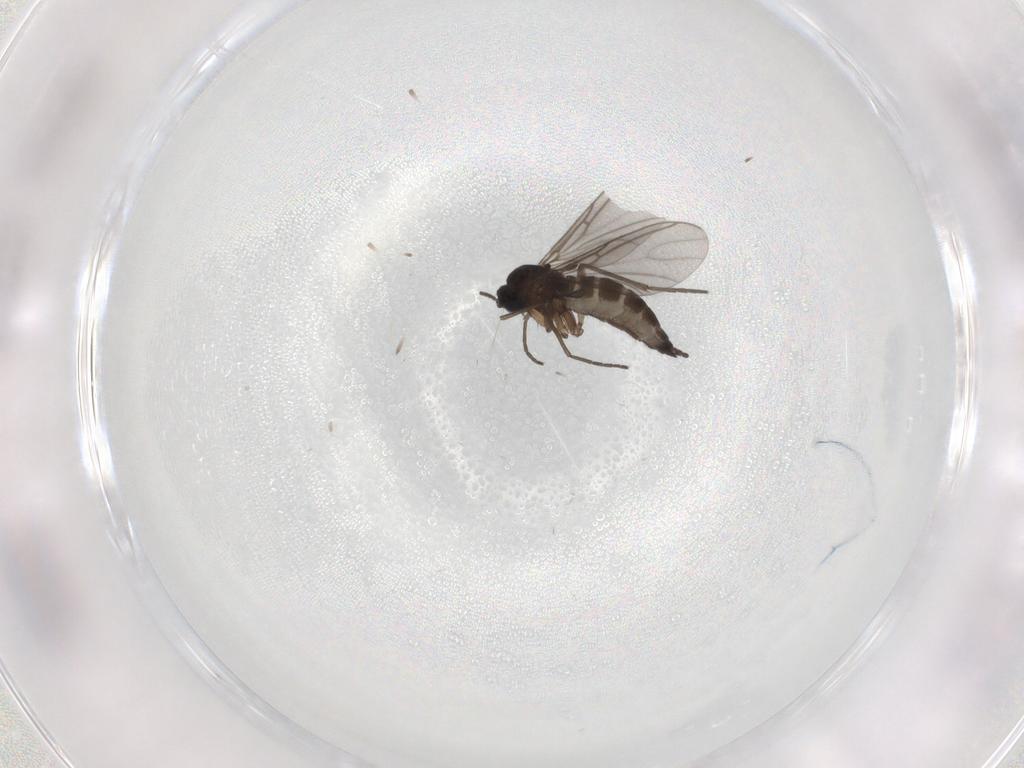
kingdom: Animalia
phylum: Arthropoda
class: Insecta
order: Diptera
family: Sciaridae
